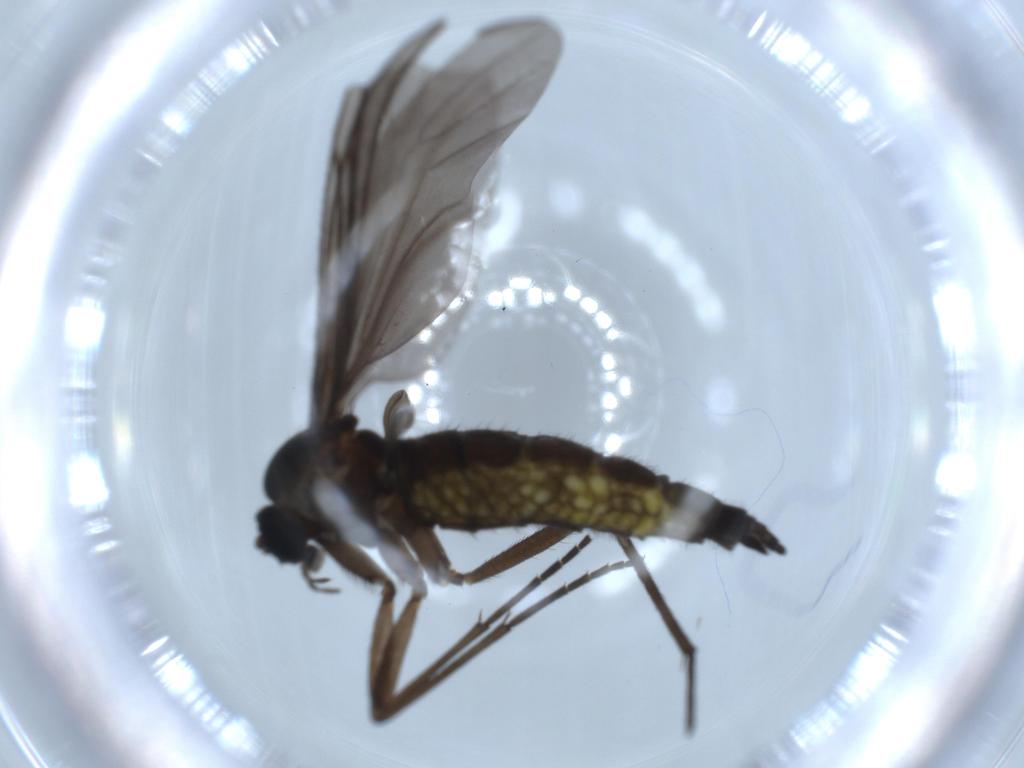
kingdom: Animalia
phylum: Arthropoda
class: Insecta
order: Diptera
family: Sciaridae
